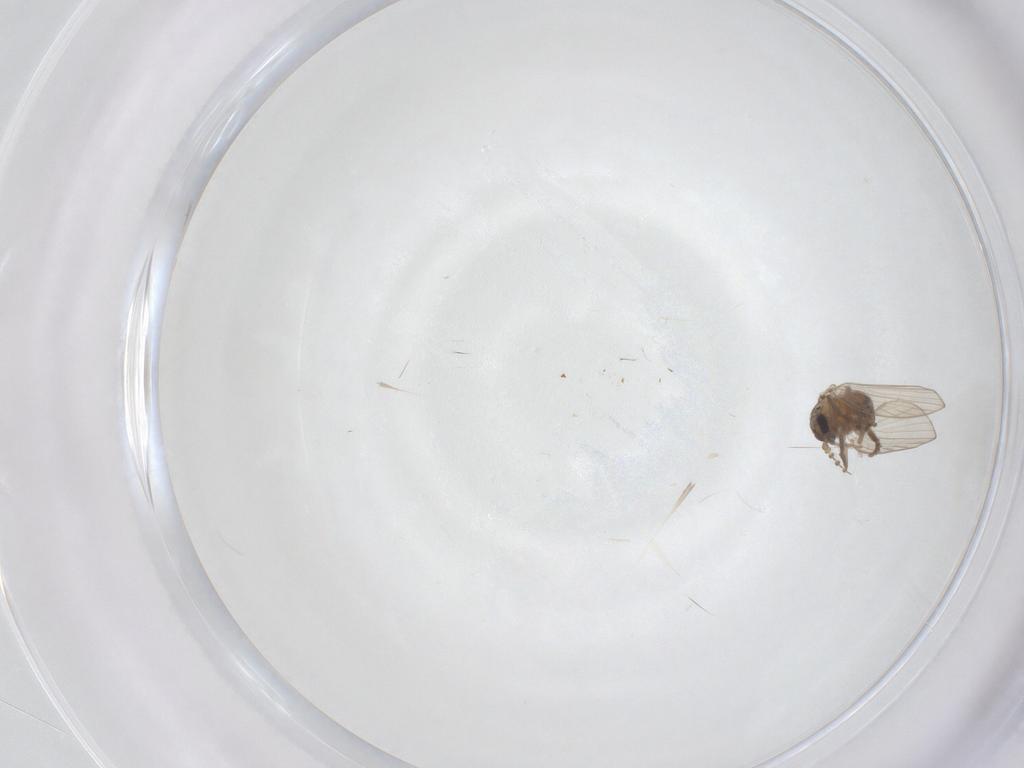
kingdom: Animalia
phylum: Arthropoda
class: Insecta
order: Diptera
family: Psychodidae
